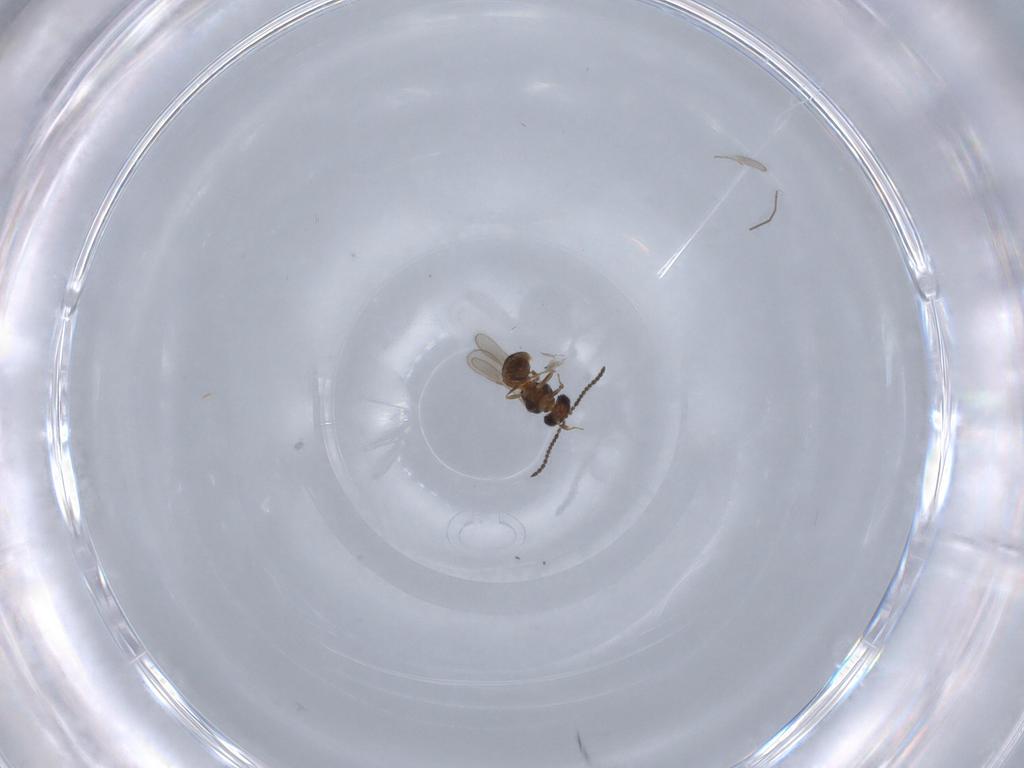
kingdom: Animalia
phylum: Arthropoda
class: Insecta
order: Hymenoptera
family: Scelionidae
